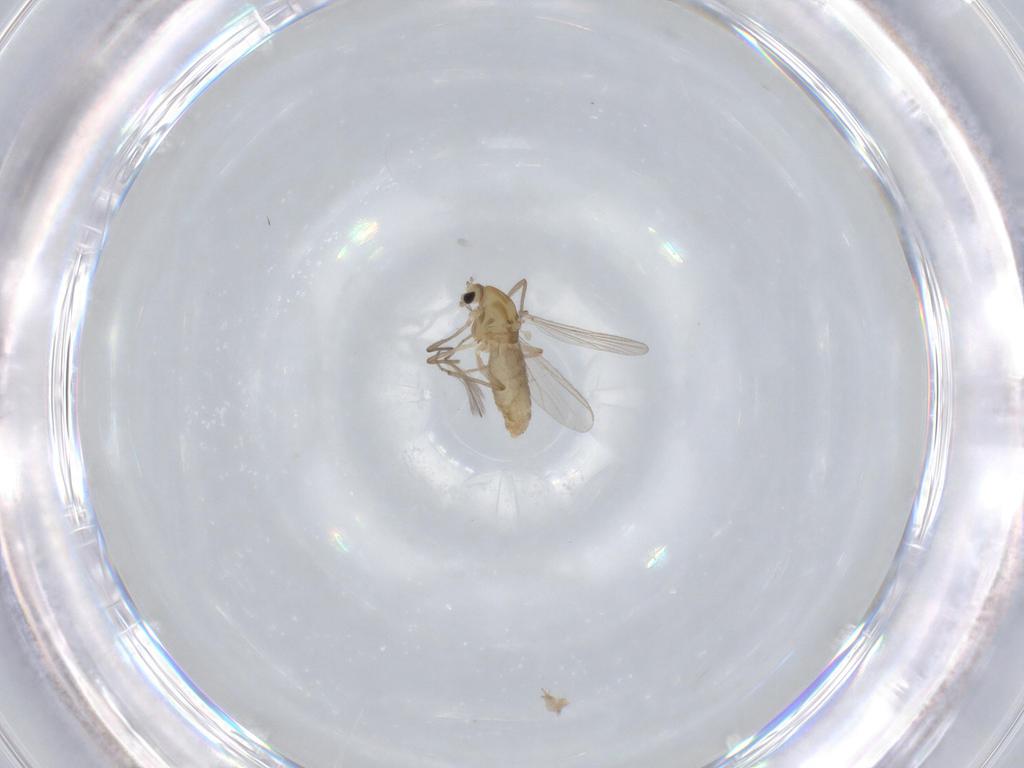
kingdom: Animalia
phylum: Arthropoda
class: Insecta
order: Diptera
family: Chironomidae
